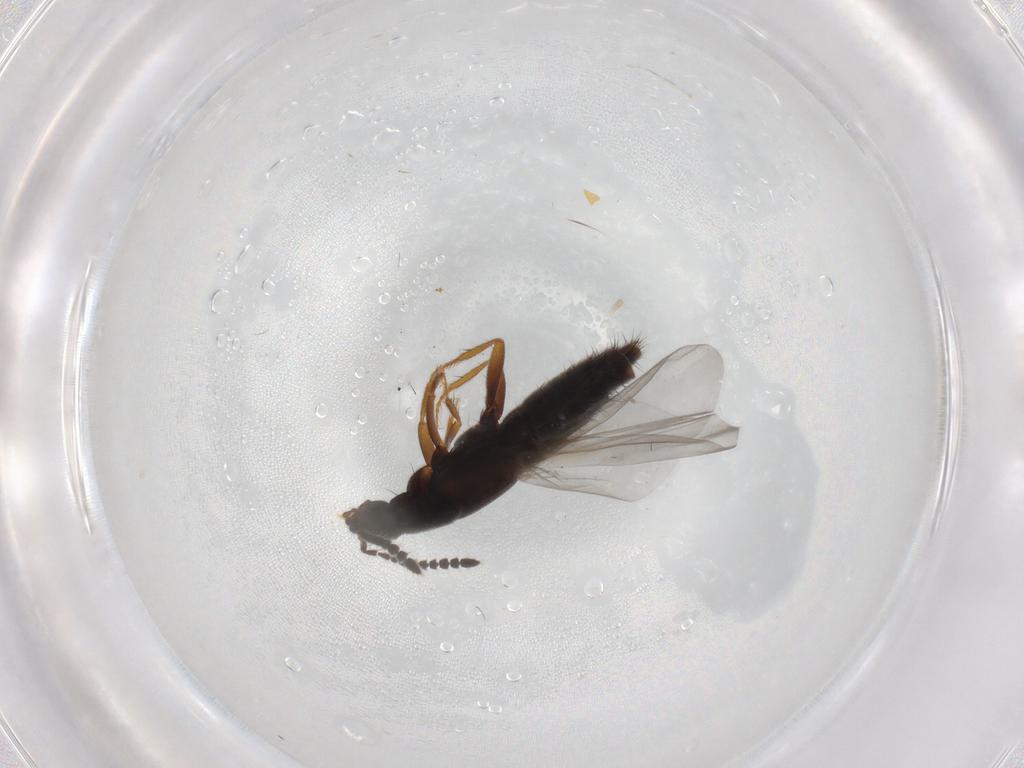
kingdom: Animalia
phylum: Arthropoda
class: Insecta
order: Coleoptera
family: Staphylinidae
